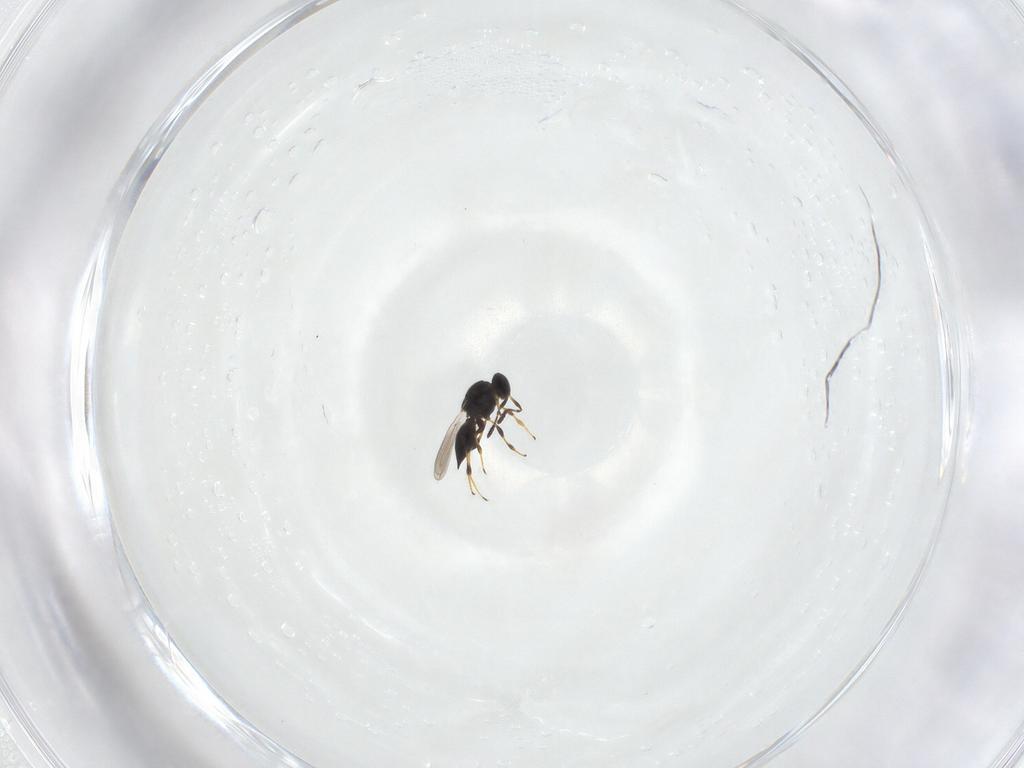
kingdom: Animalia
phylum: Arthropoda
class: Insecta
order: Hymenoptera
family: Platygastridae
